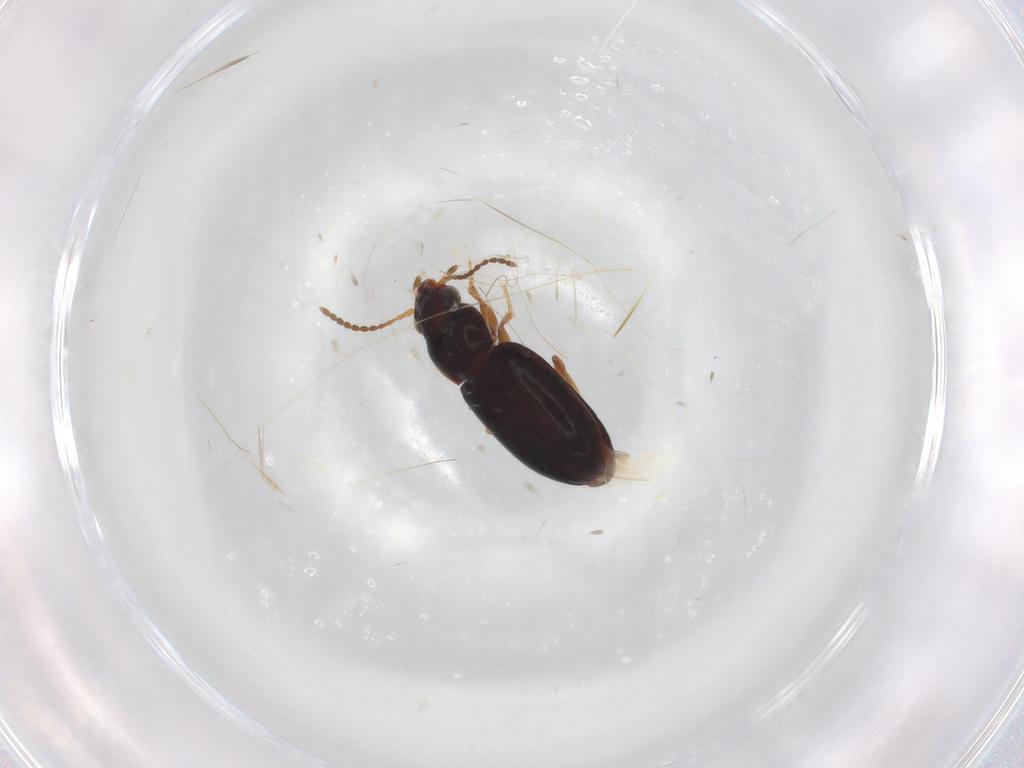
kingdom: Animalia
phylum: Arthropoda
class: Insecta
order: Coleoptera
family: Carabidae
